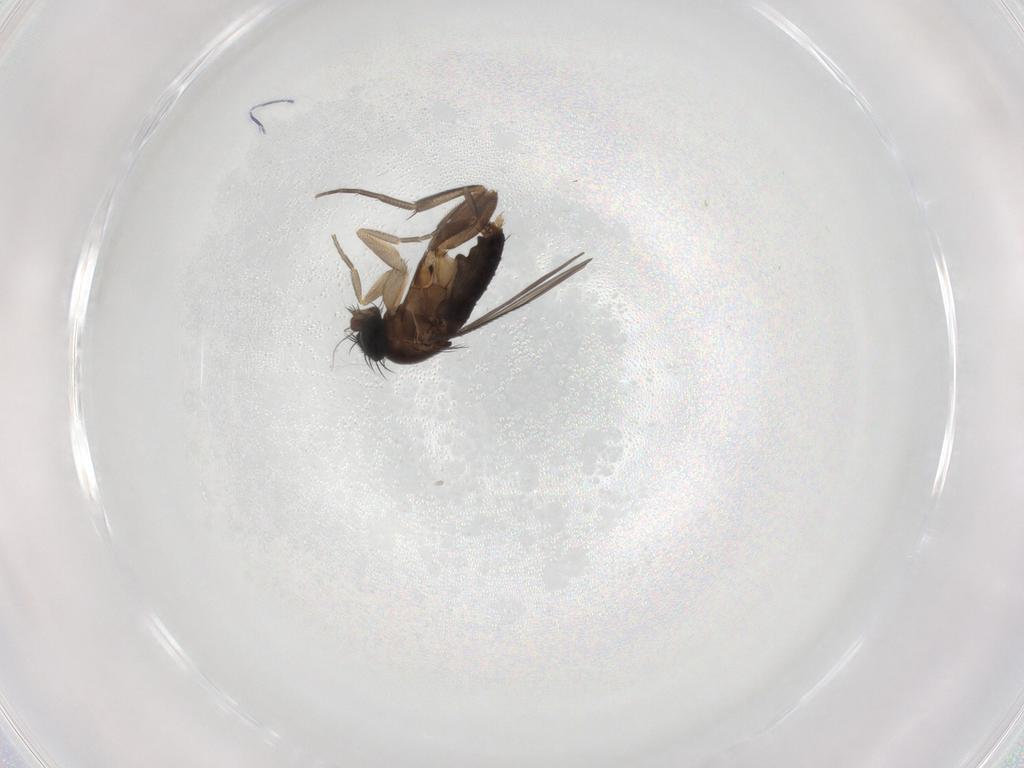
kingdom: Animalia
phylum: Arthropoda
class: Insecta
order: Diptera
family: Phoridae
